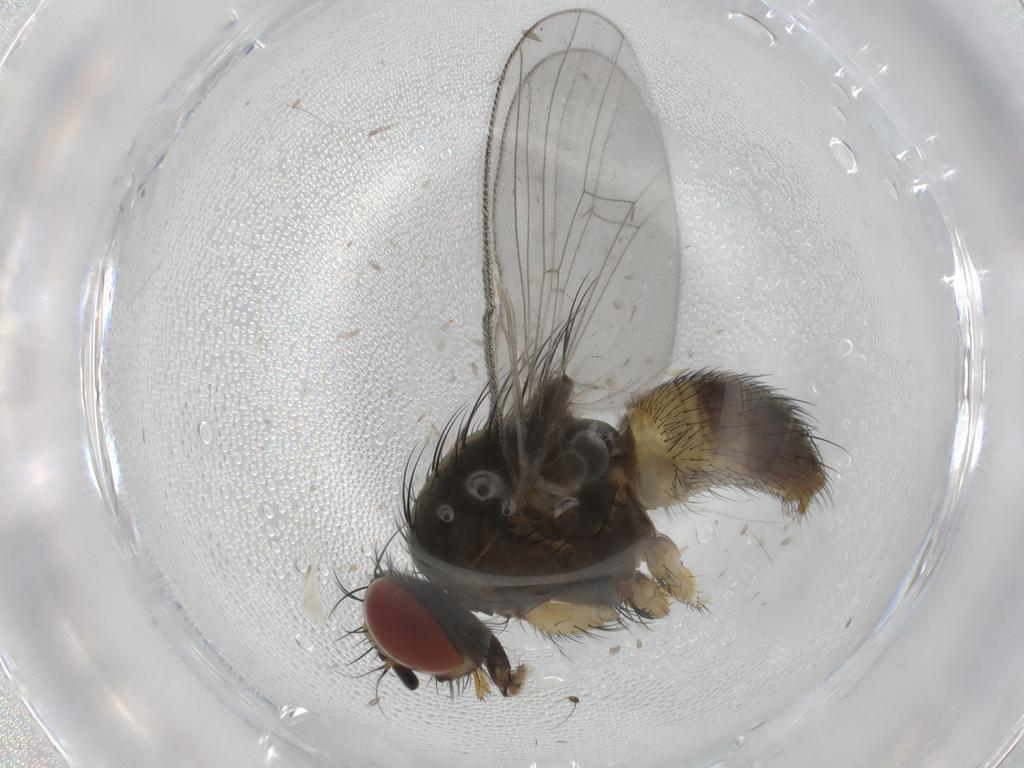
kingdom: Animalia
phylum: Arthropoda
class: Insecta
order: Diptera
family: Muscidae
